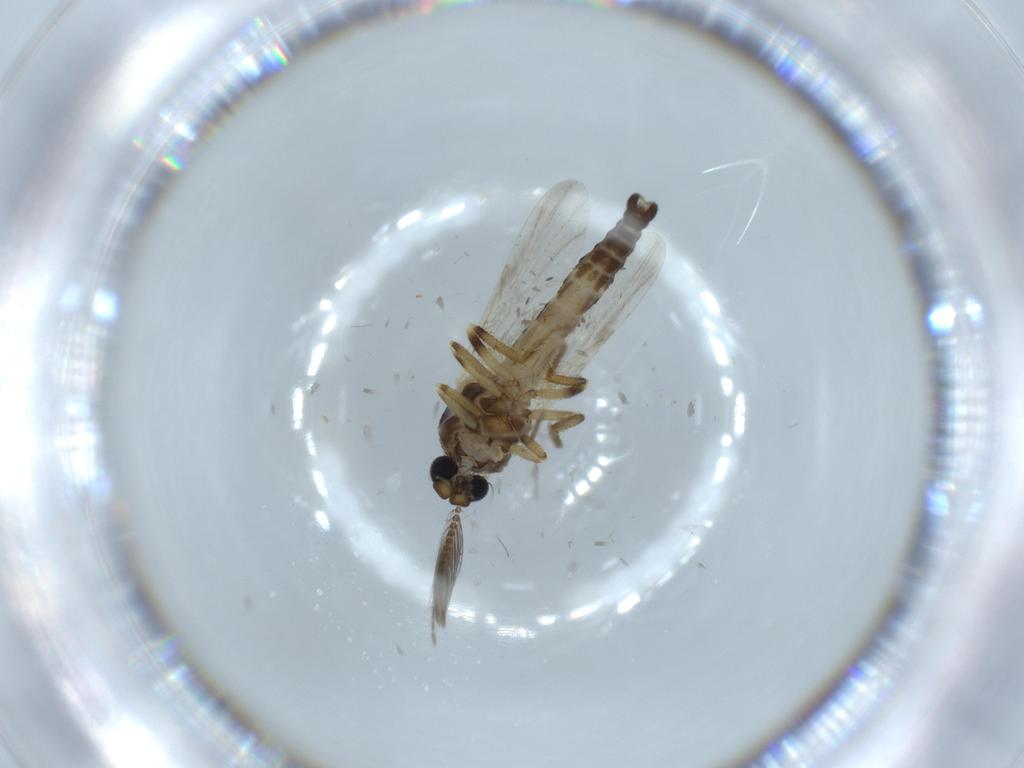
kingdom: Animalia
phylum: Arthropoda
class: Insecta
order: Diptera
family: Ceratopogonidae
